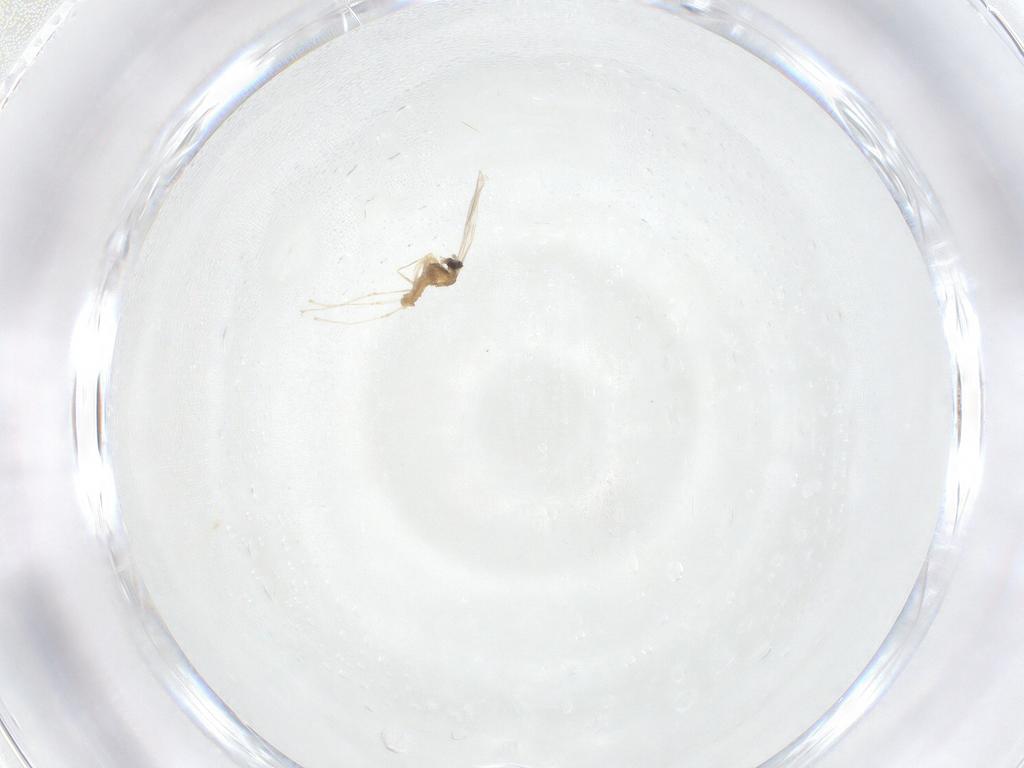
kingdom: Animalia
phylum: Arthropoda
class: Insecta
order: Diptera
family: Cecidomyiidae
